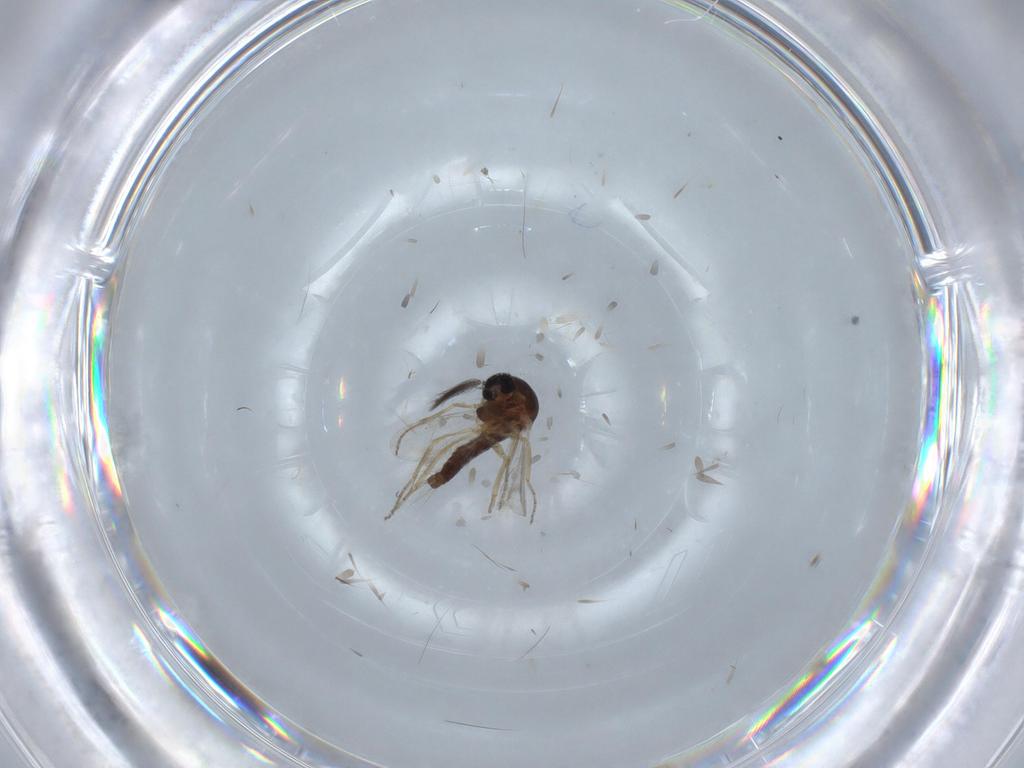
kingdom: Animalia
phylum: Arthropoda
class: Insecta
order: Diptera
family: Ceratopogonidae
